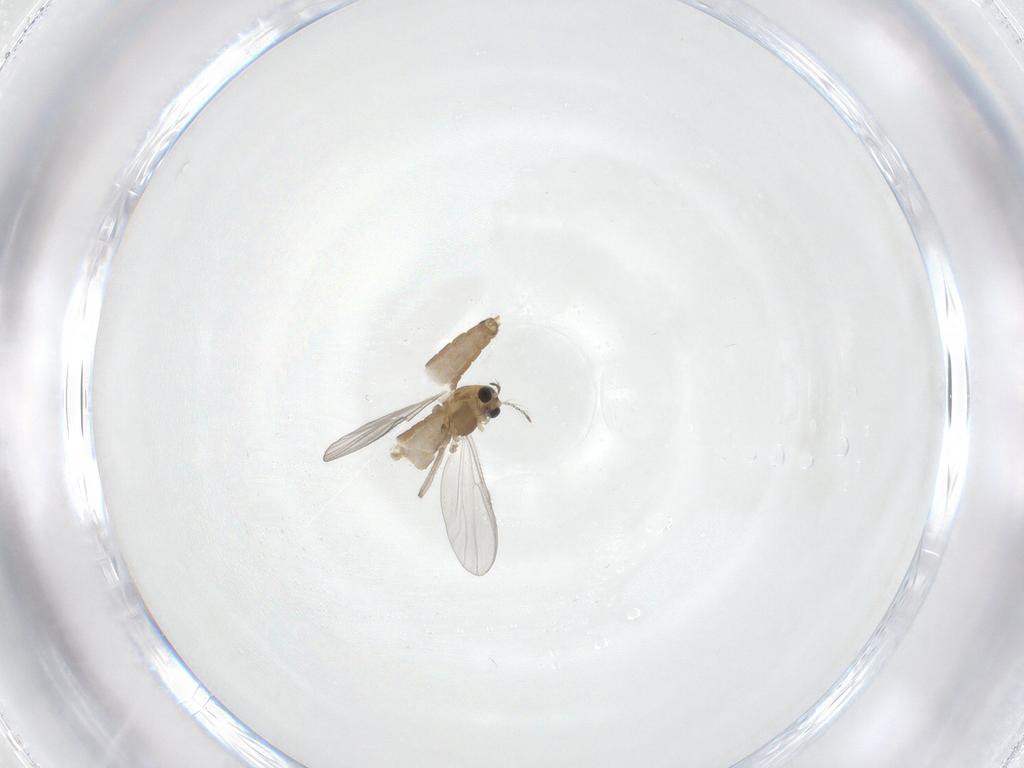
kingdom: Animalia
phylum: Arthropoda
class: Insecta
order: Diptera
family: Chironomidae
